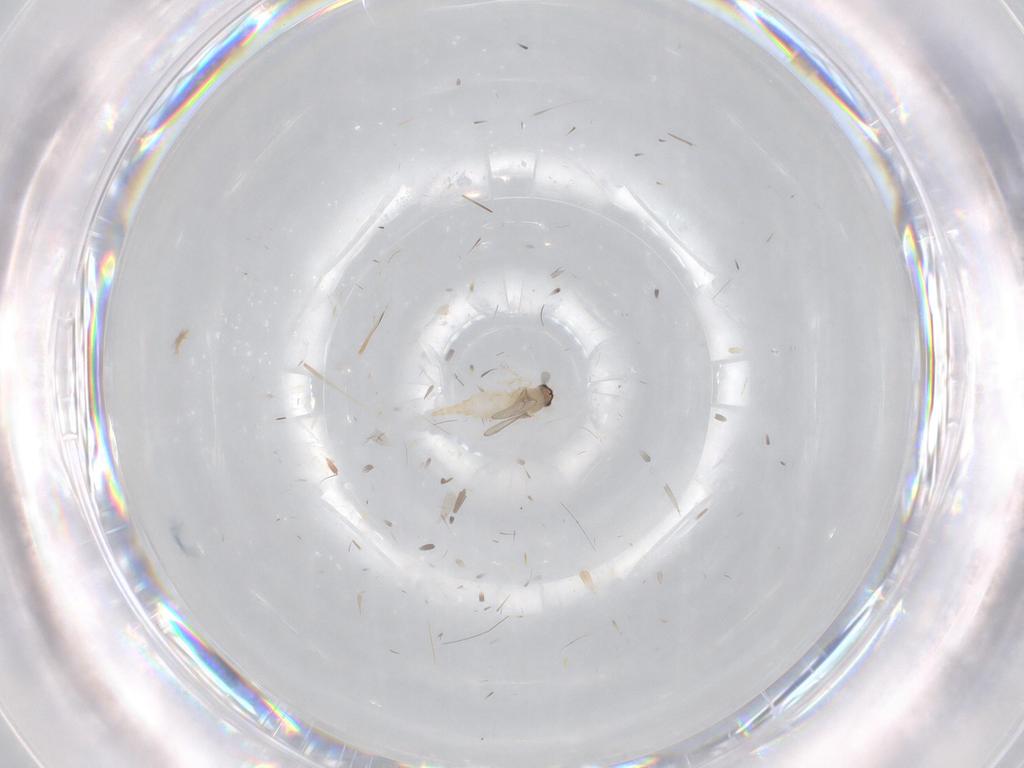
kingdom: Animalia
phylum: Arthropoda
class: Insecta
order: Diptera
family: Cecidomyiidae
